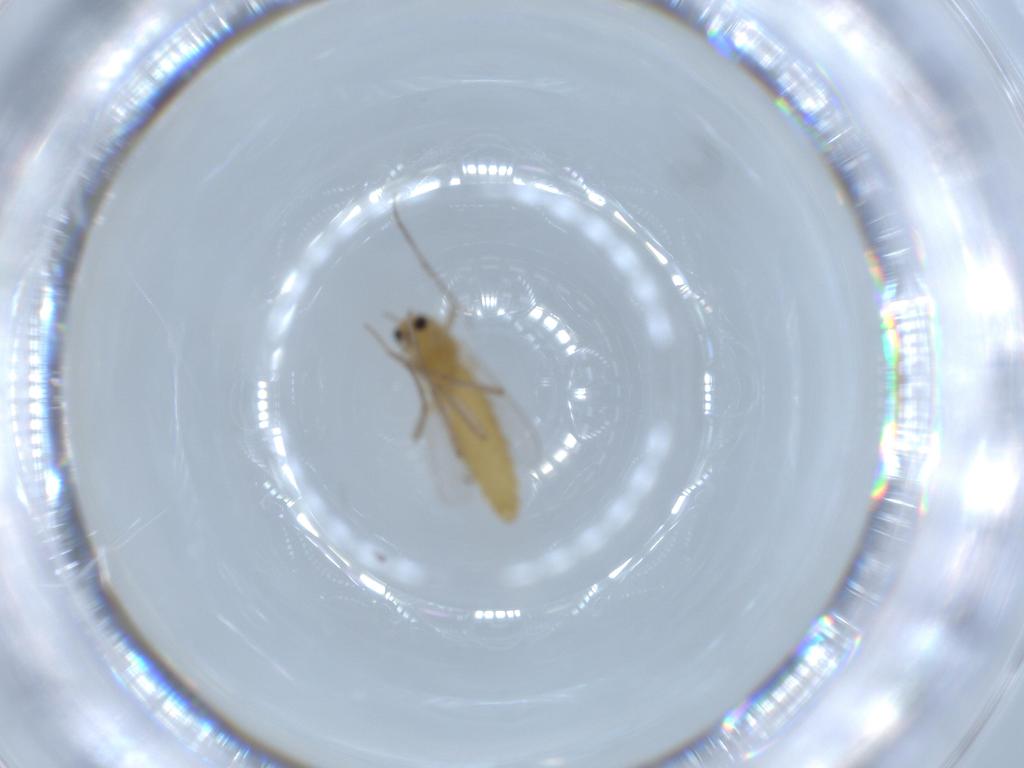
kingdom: Animalia
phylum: Arthropoda
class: Insecta
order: Diptera
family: Chironomidae
